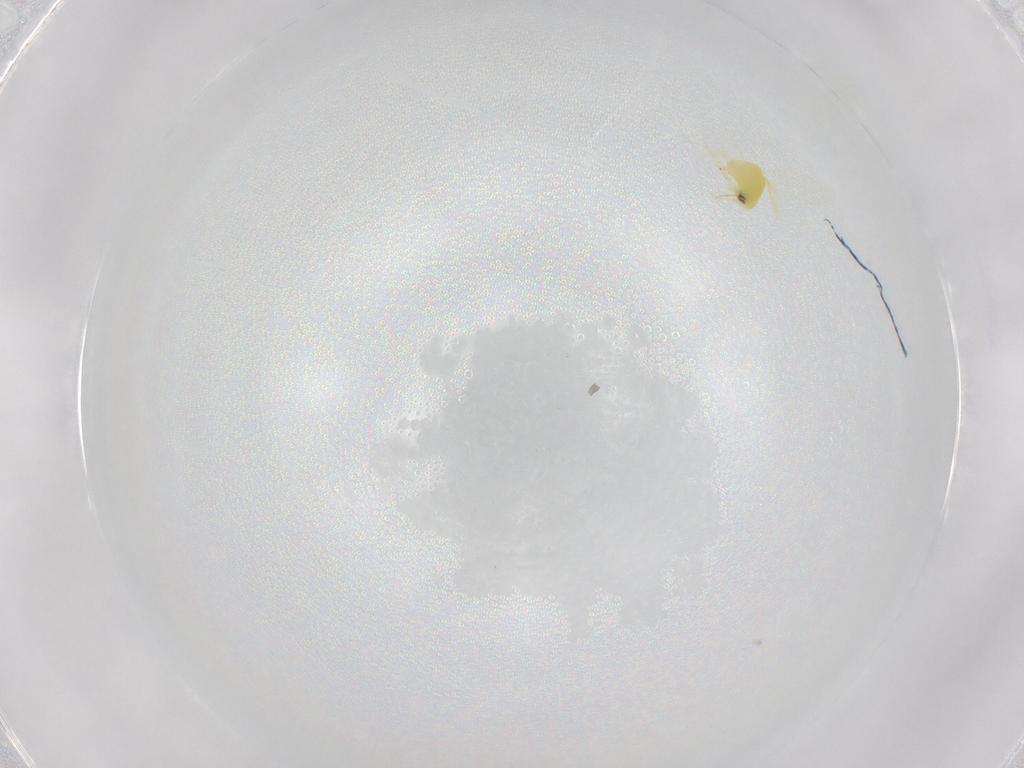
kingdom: Animalia
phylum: Arthropoda
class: Insecta
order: Hemiptera
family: Aleyrodidae
